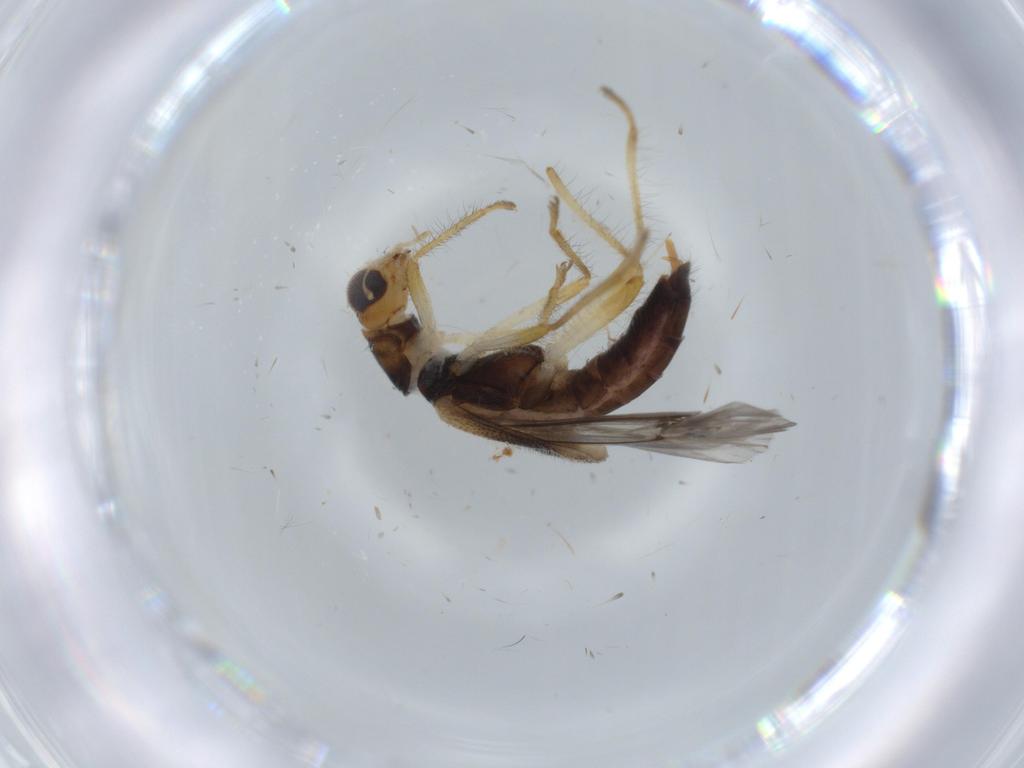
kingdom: Animalia
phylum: Arthropoda
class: Insecta
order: Coleoptera
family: Cleridae
